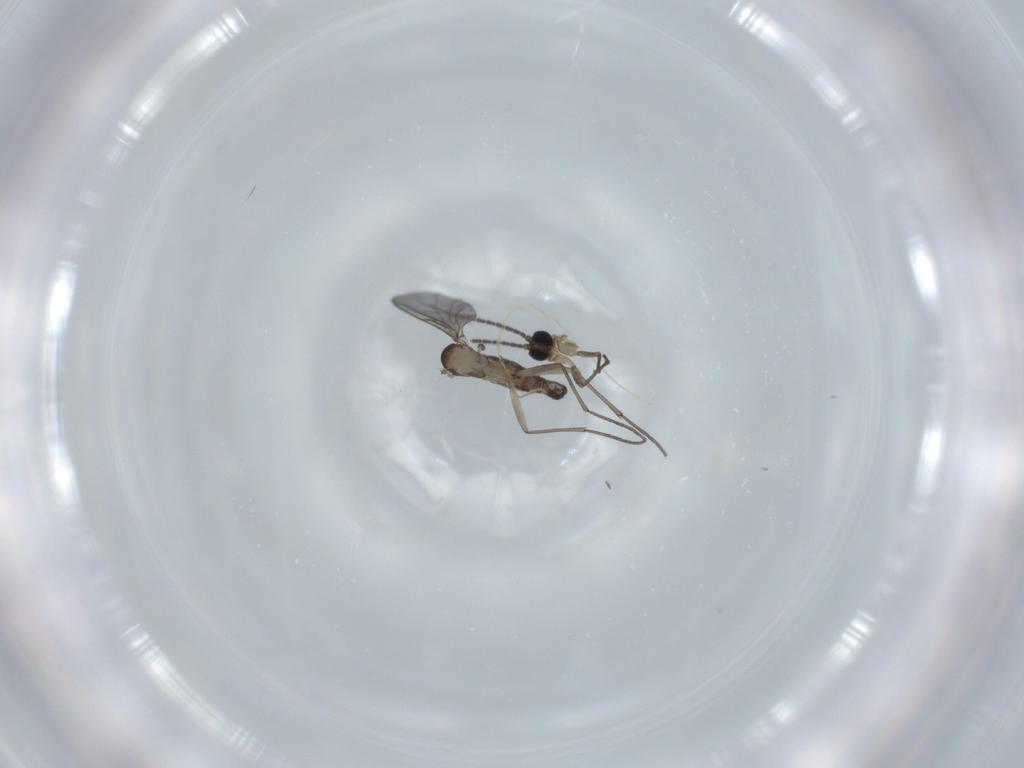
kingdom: Animalia
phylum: Arthropoda
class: Insecta
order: Diptera
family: Sciaridae
